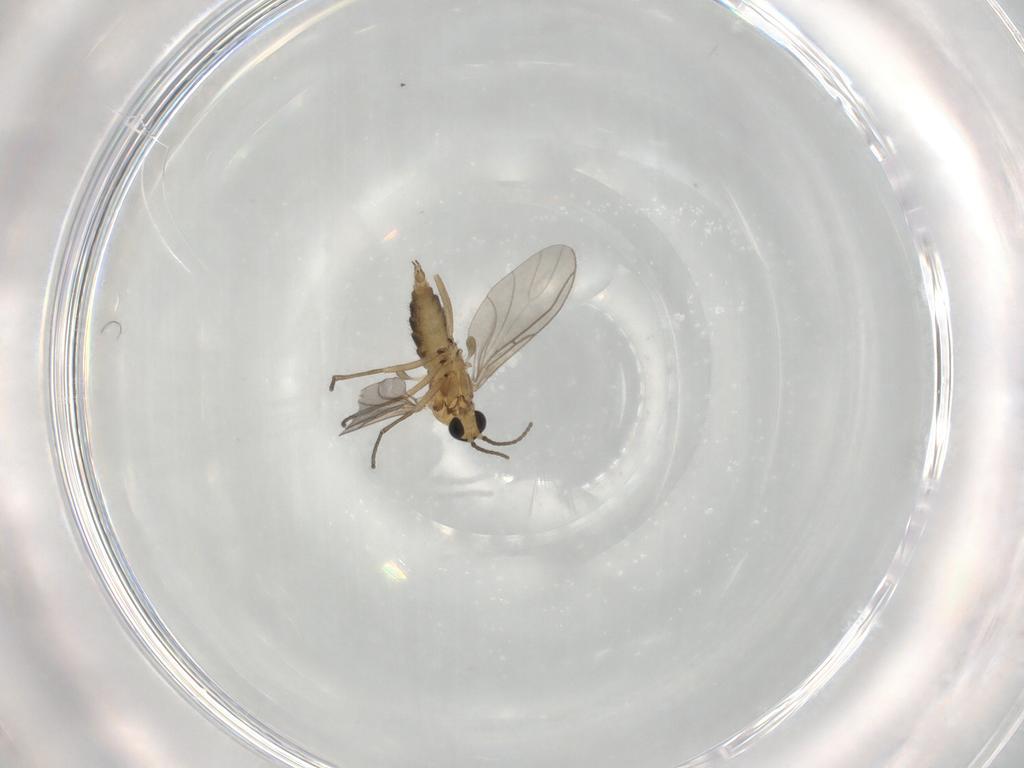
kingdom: Animalia
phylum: Arthropoda
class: Insecta
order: Diptera
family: Sciaridae
